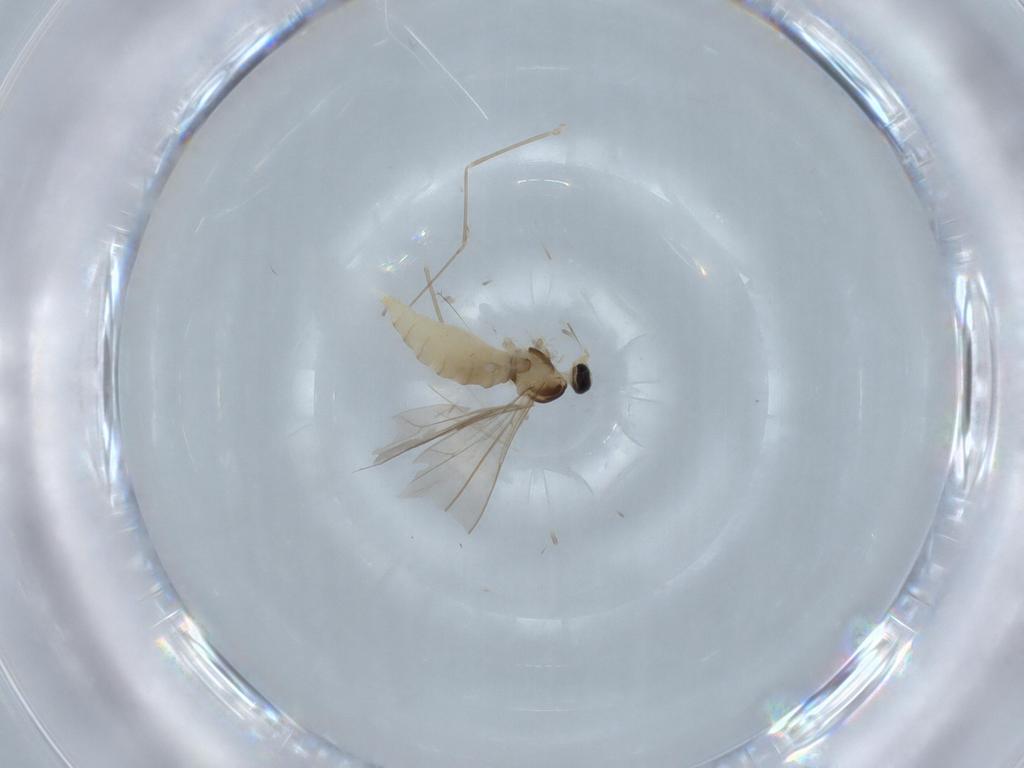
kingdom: Animalia
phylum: Arthropoda
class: Insecta
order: Diptera
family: Cecidomyiidae
